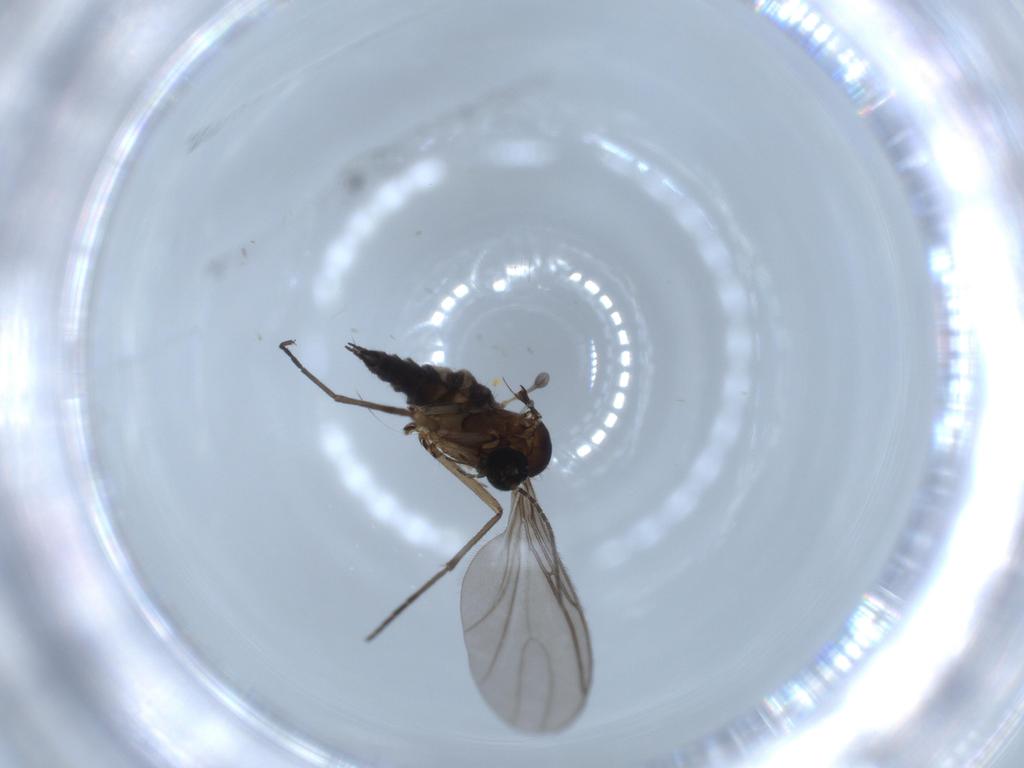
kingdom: Animalia
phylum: Arthropoda
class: Insecta
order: Diptera
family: Sciaridae
